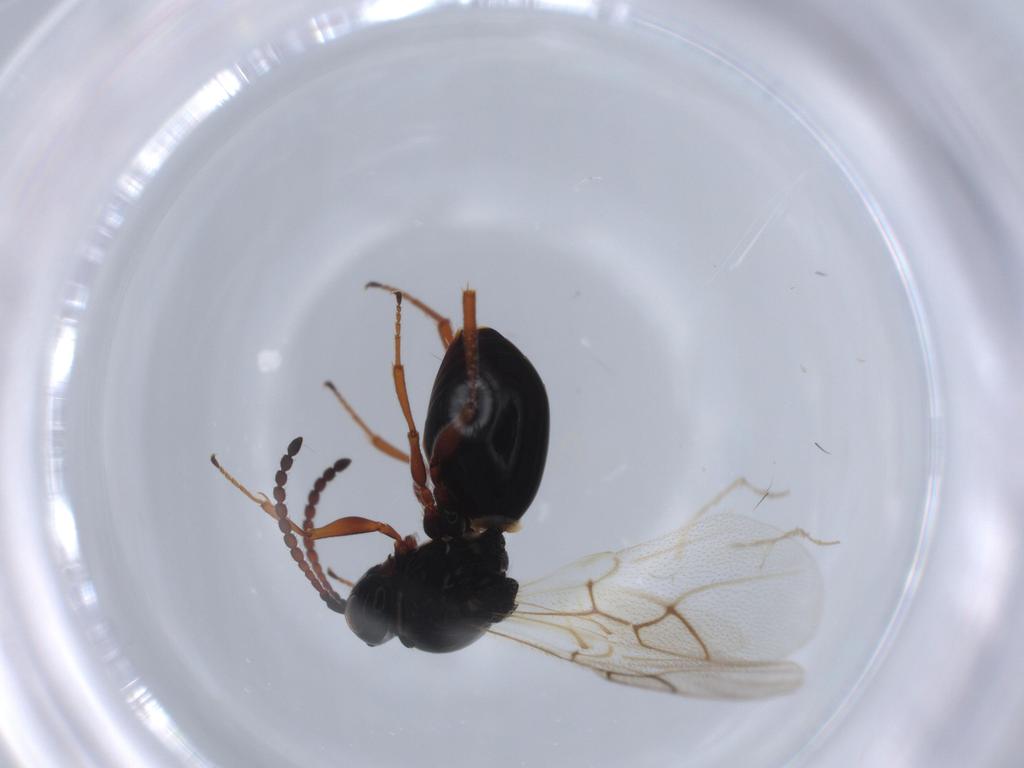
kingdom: Animalia
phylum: Arthropoda
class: Insecta
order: Hymenoptera
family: Figitidae
